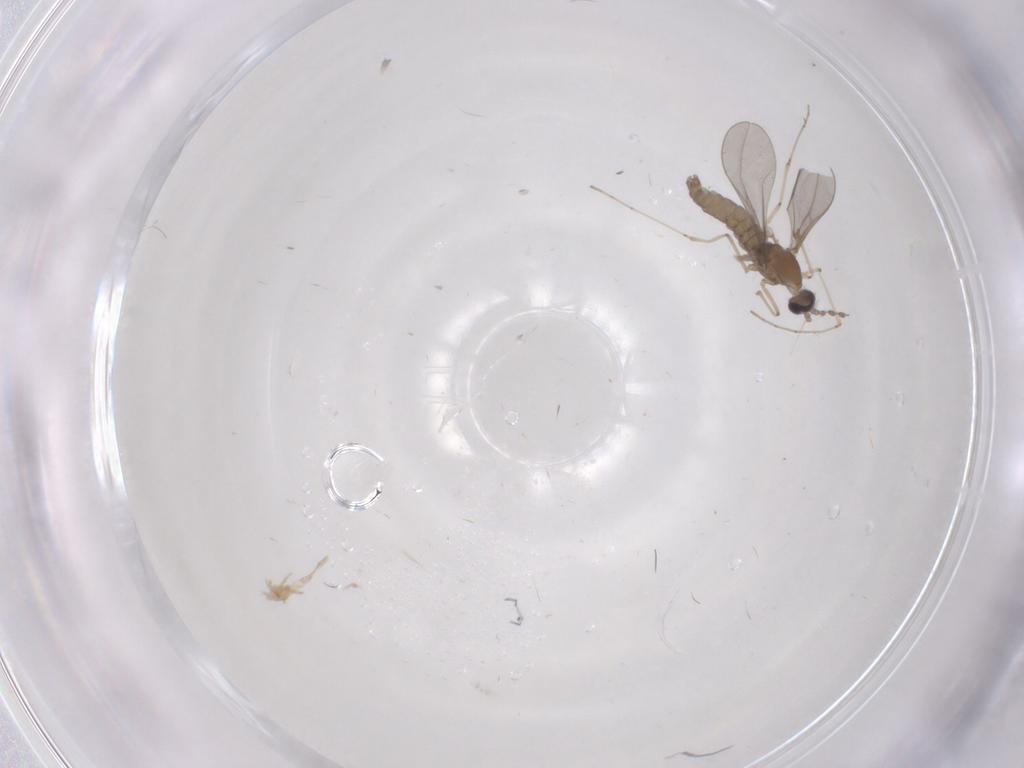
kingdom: Animalia
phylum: Arthropoda
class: Insecta
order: Diptera
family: Cecidomyiidae
